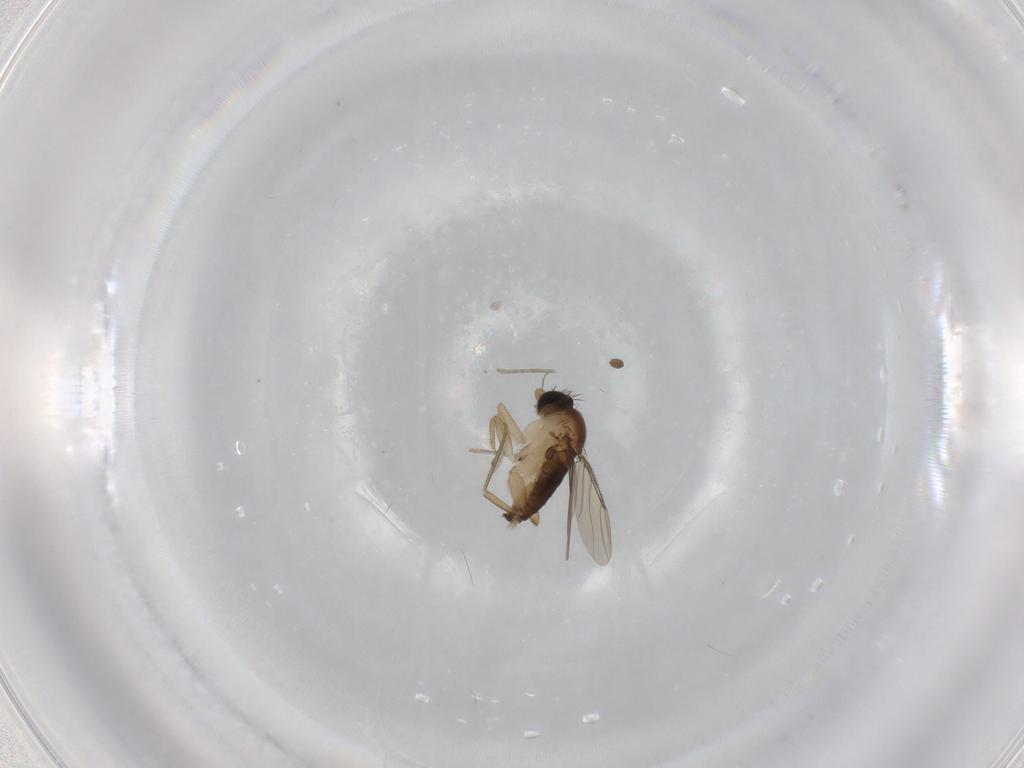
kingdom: Animalia
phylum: Arthropoda
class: Insecta
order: Diptera
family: Phoridae
